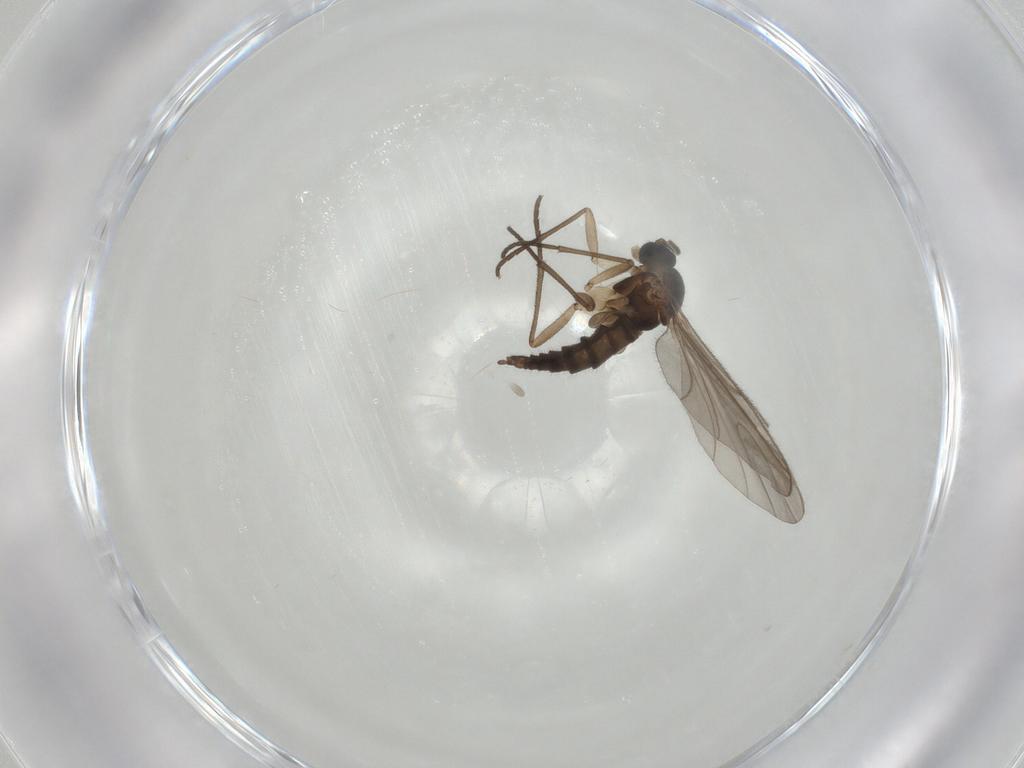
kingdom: Animalia
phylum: Arthropoda
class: Insecta
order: Diptera
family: Sciaridae
